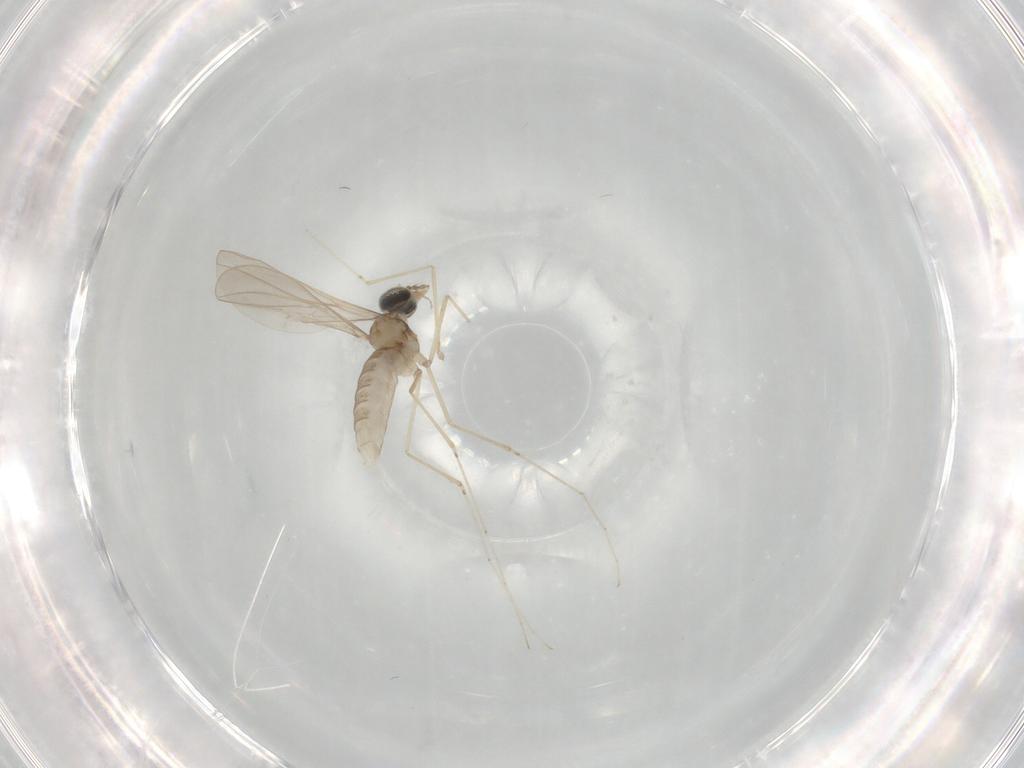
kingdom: Animalia
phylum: Arthropoda
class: Insecta
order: Diptera
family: Cecidomyiidae
